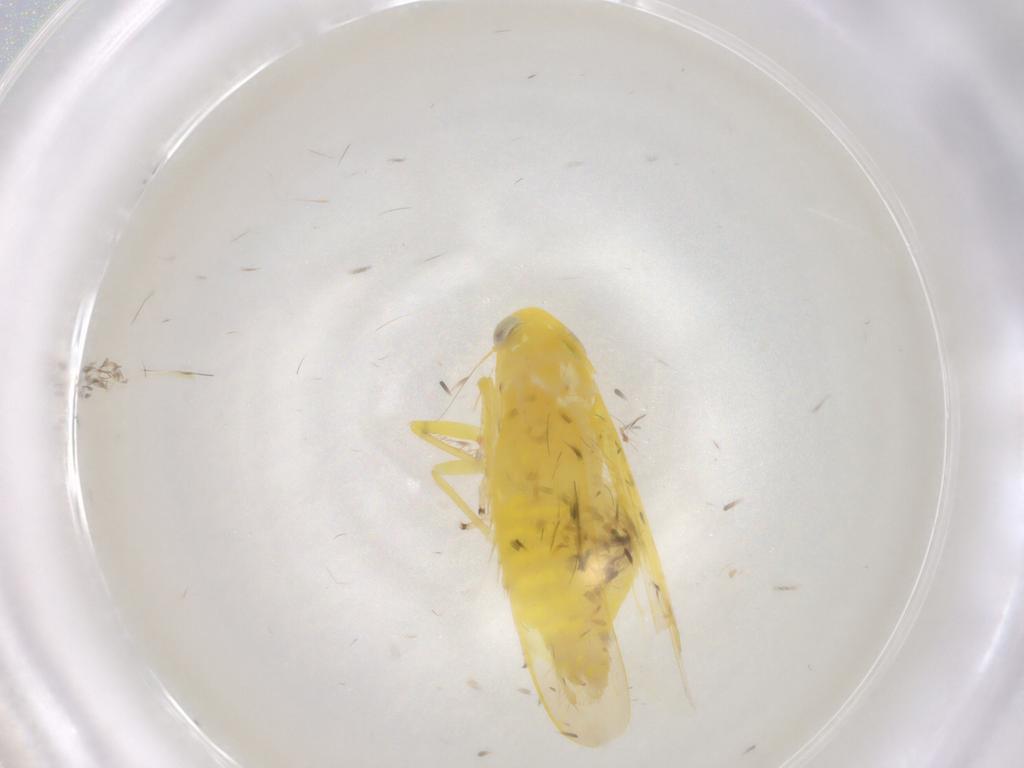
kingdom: Animalia
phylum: Arthropoda
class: Insecta
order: Hemiptera
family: Cicadellidae
